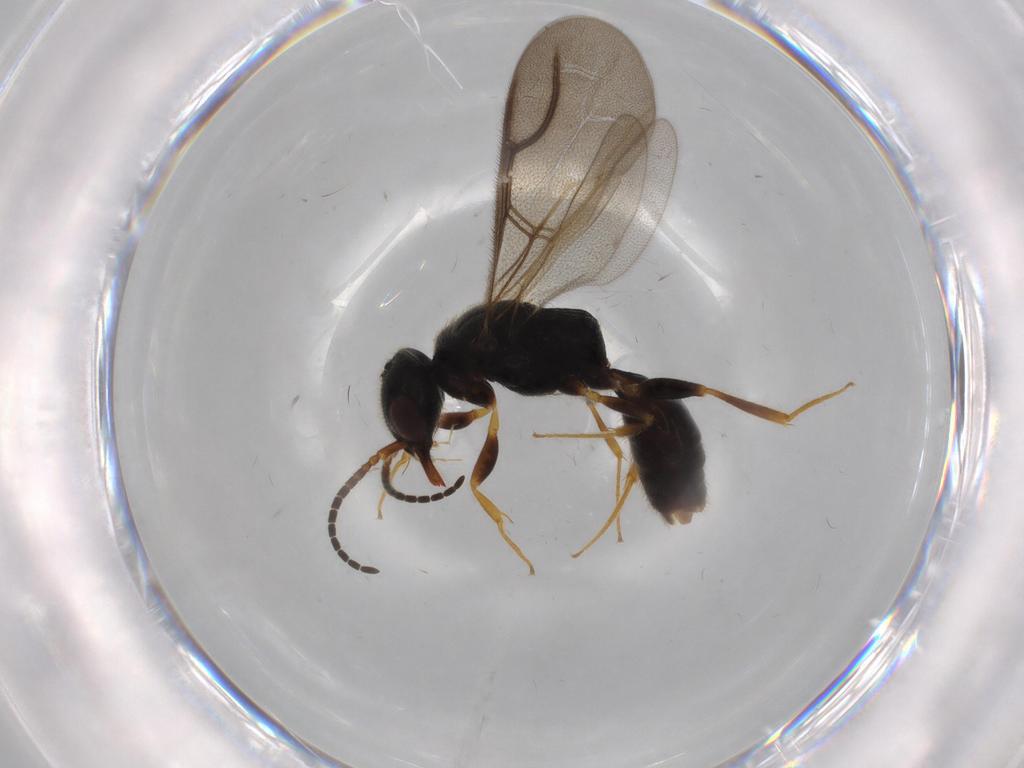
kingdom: Animalia
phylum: Arthropoda
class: Insecta
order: Hymenoptera
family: Bethylidae
